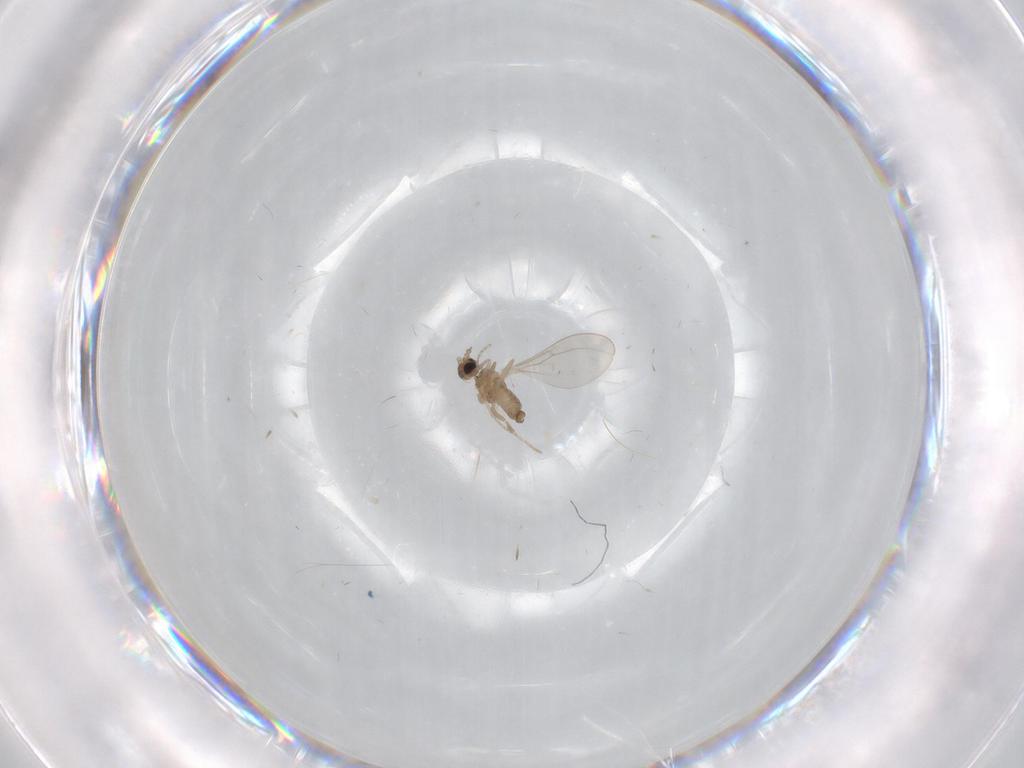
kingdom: Animalia
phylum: Arthropoda
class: Insecta
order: Diptera
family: Cecidomyiidae
